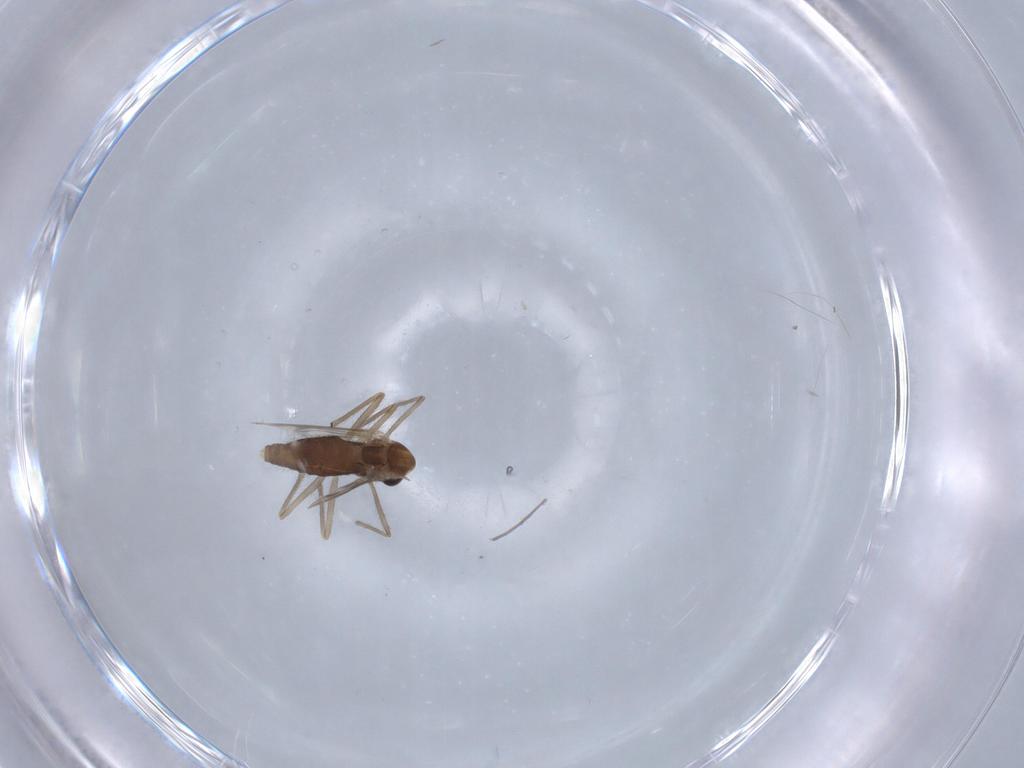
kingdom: Animalia
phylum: Arthropoda
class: Insecta
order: Diptera
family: Chironomidae
